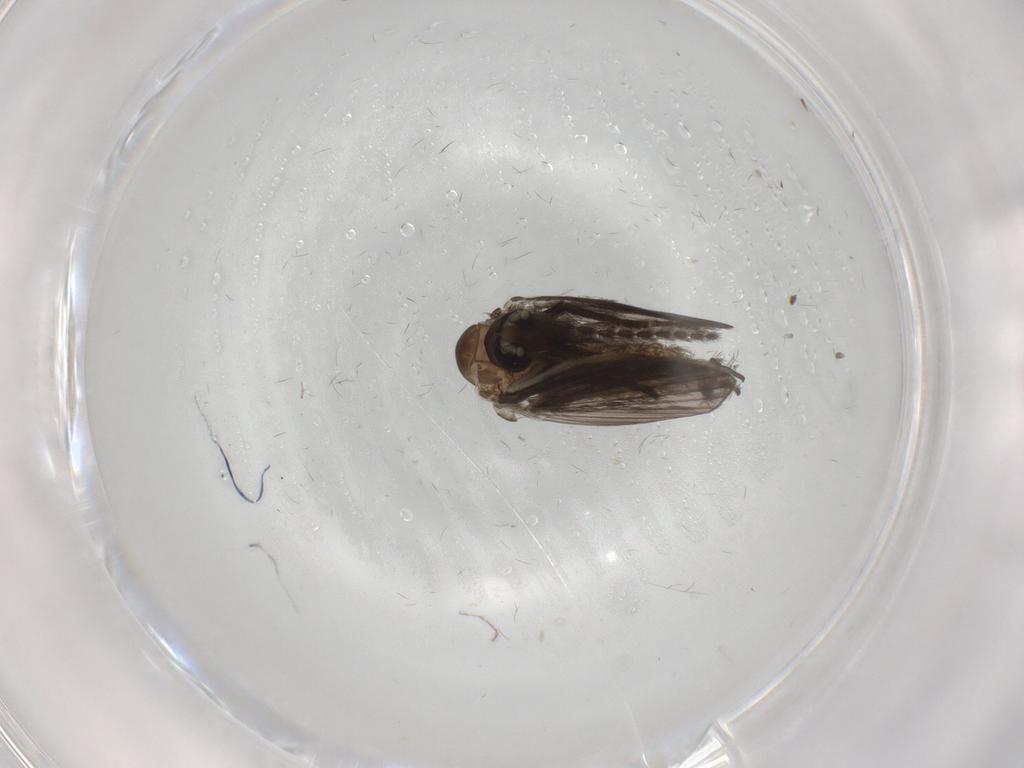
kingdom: Animalia
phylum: Arthropoda
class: Insecta
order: Diptera
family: Psychodidae
